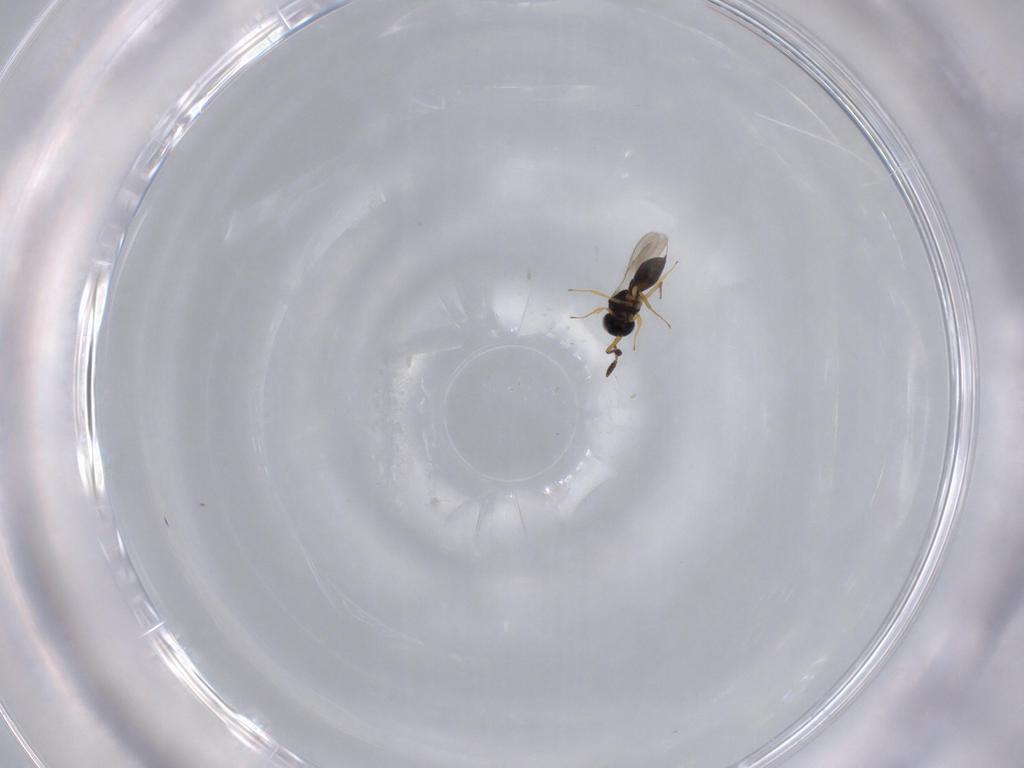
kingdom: Animalia
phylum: Arthropoda
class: Insecta
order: Hymenoptera
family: Scelionidae
